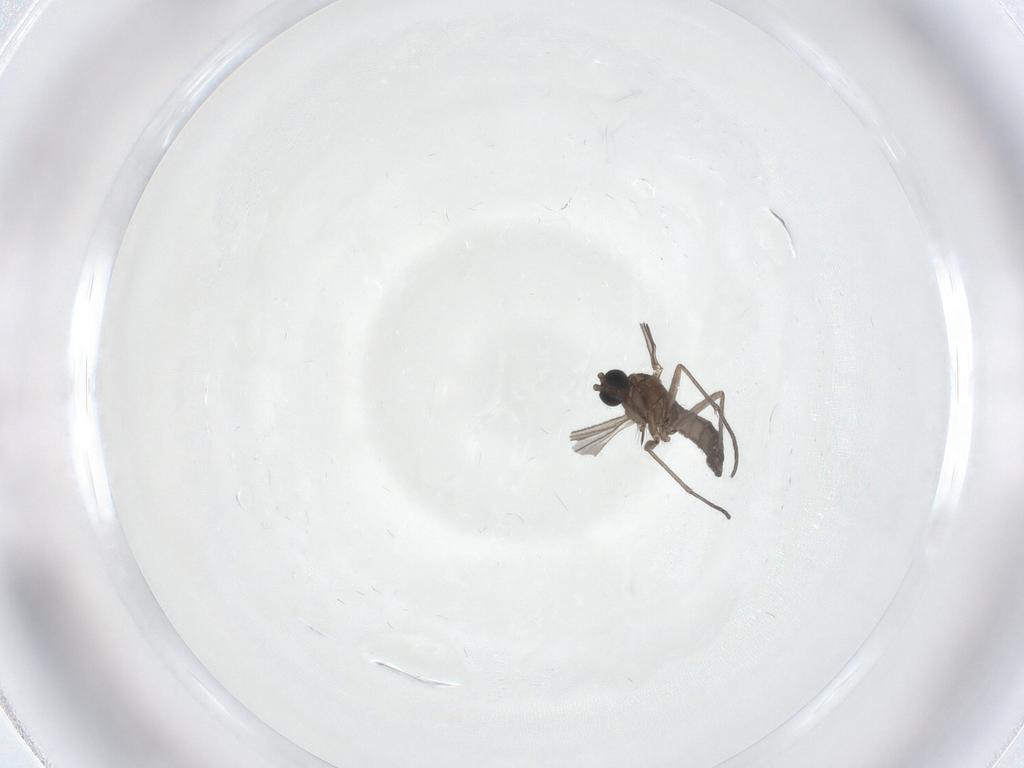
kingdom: Animalia
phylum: Arthropoda
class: Insecta
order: Diptera
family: Sciaridae
